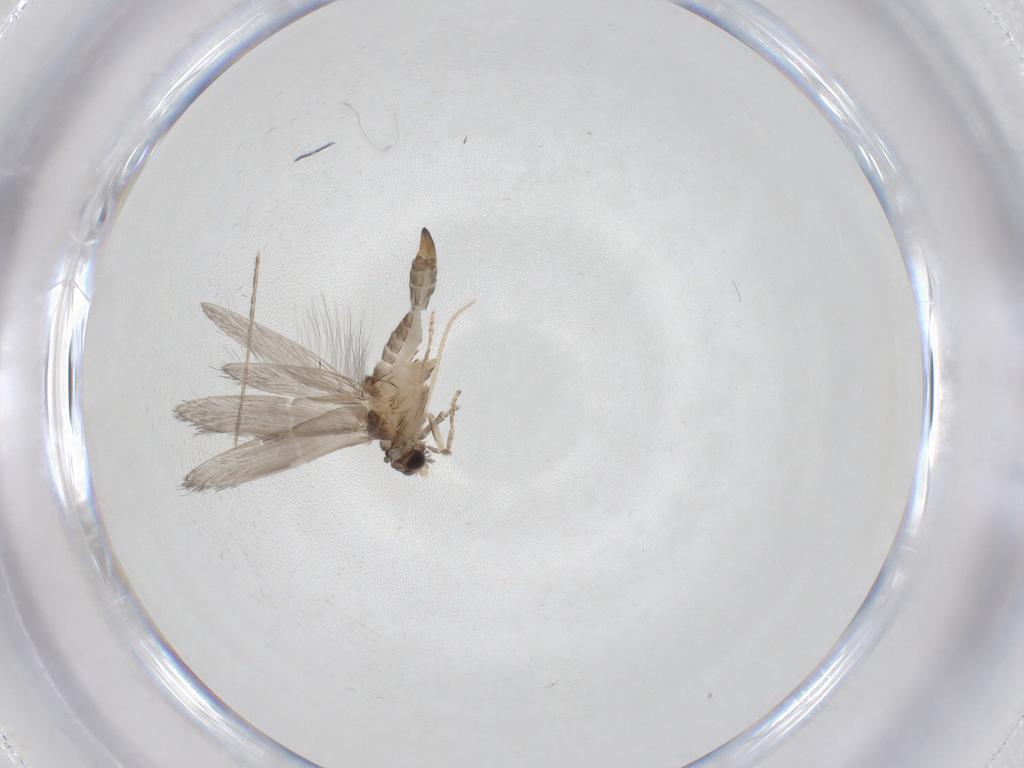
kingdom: Animalia
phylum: Arthropoda
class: Insecta
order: Trichoptera
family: Hydroptilidae
